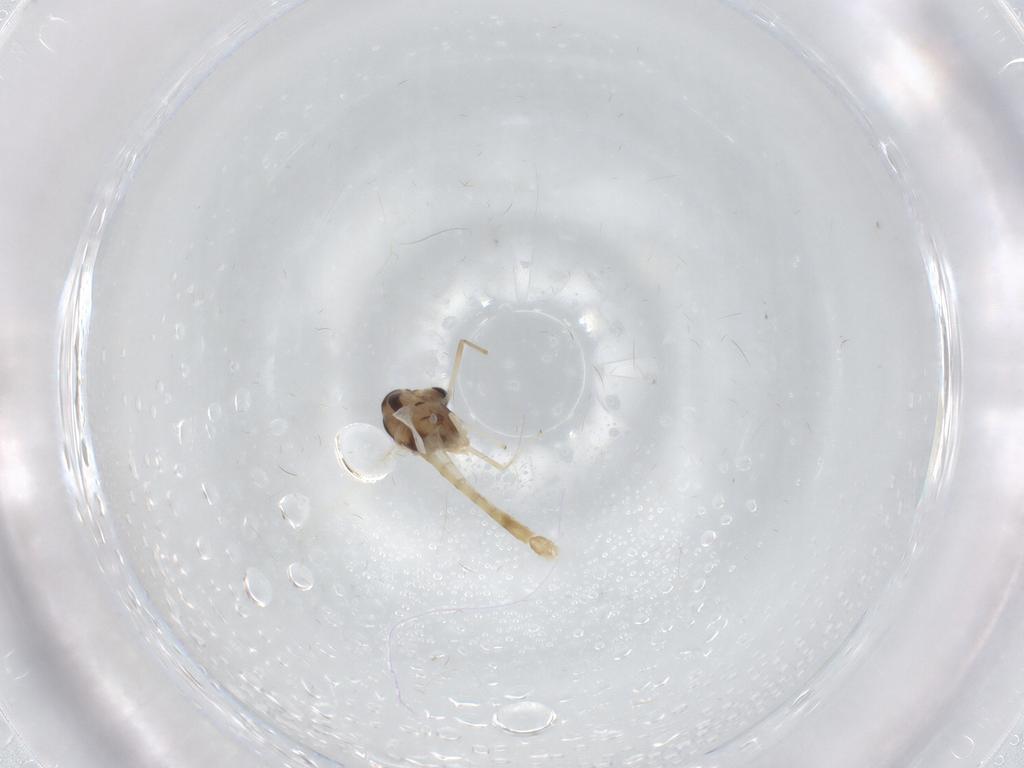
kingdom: Animalia
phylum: Arthropoda
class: Insecta
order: Diptera
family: Chironomidae
